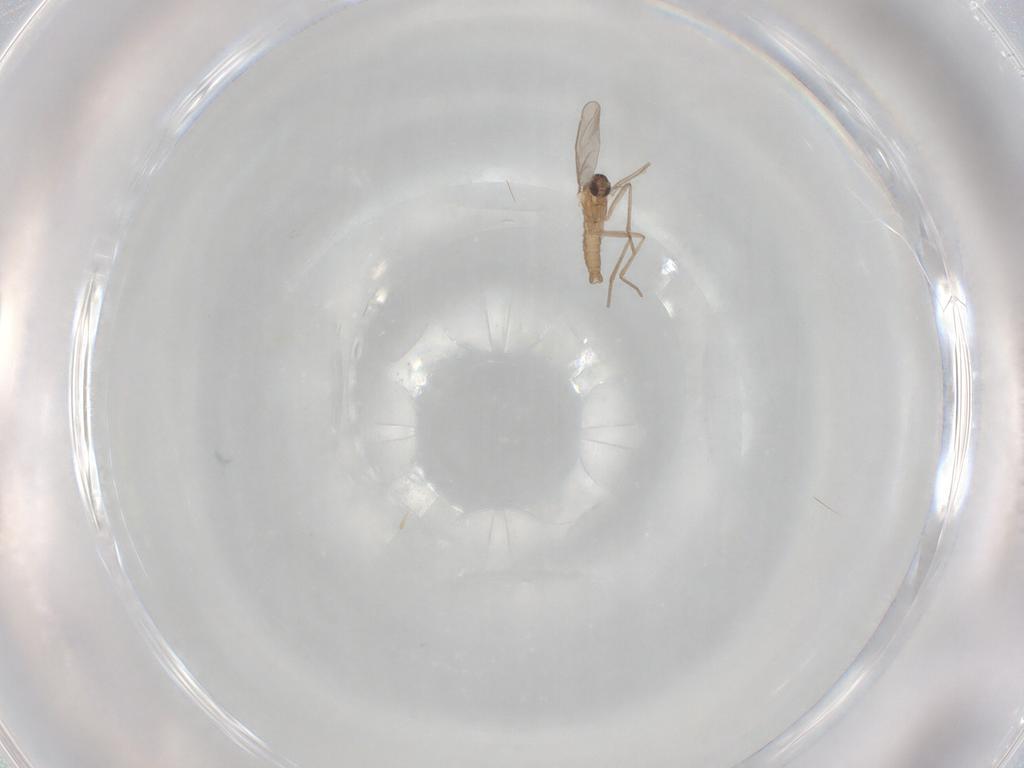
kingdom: Animalia
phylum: Arthropoda
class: Insecta
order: Diptera
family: Cecidomyiidae
